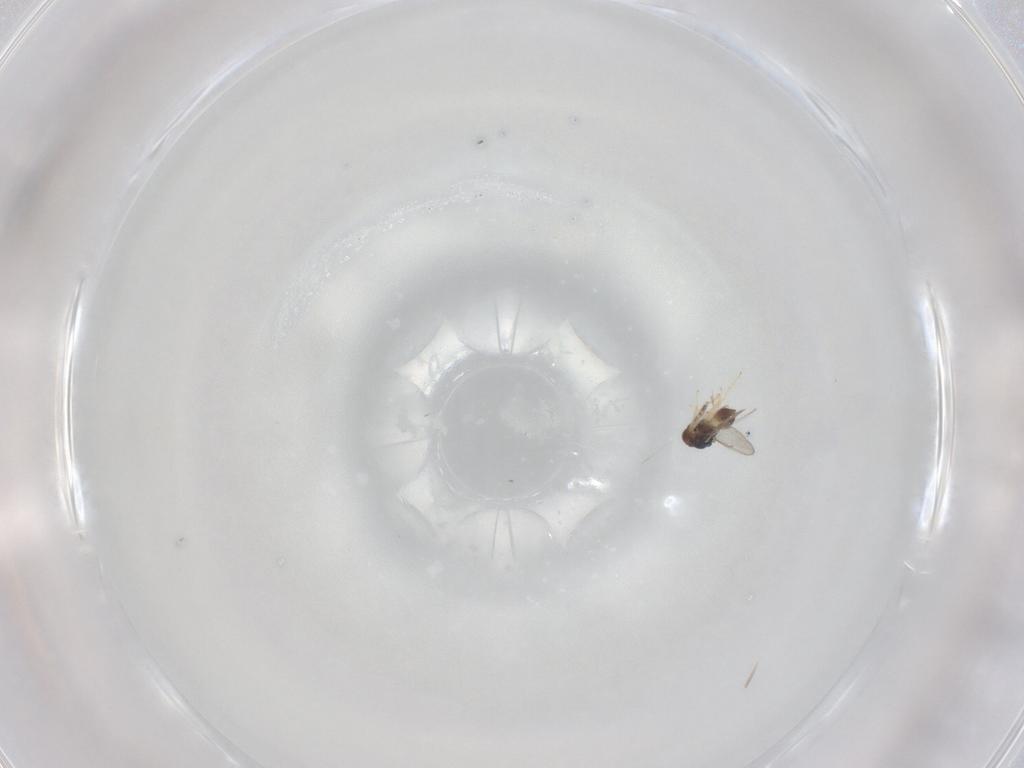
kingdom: Animalia
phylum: Arthropoda
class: Insecta
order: Hymenoptera
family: Eulophidae
